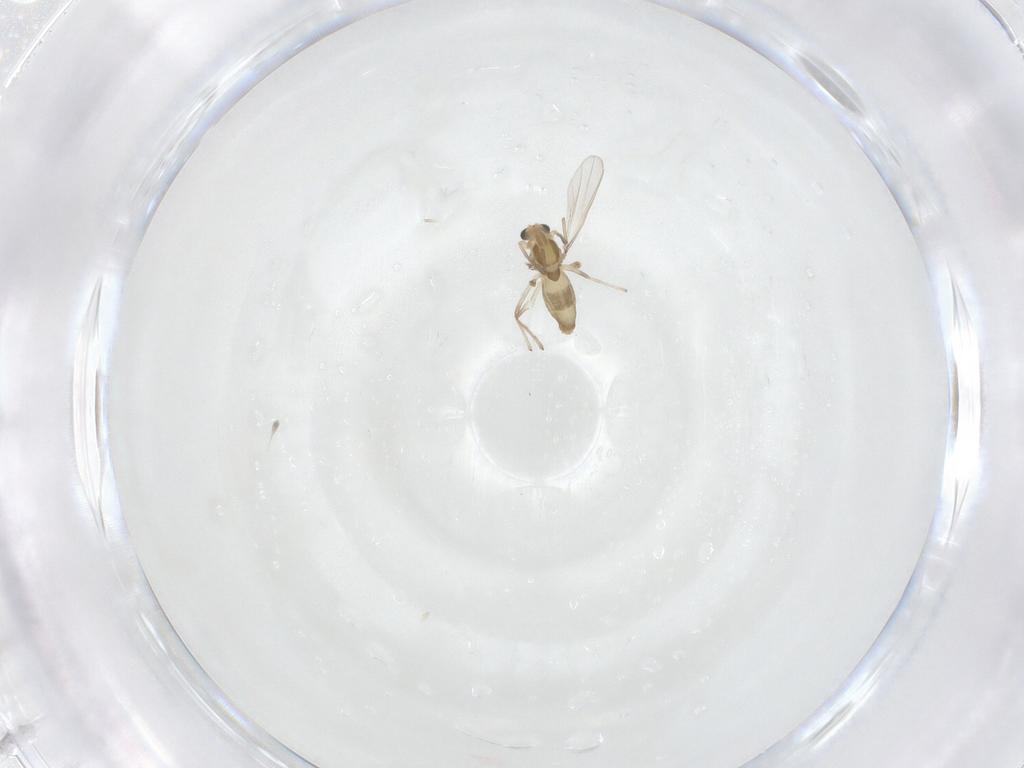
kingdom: Animalia
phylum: Arthropoda
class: Insecta
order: Diptera
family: Chironomidae
